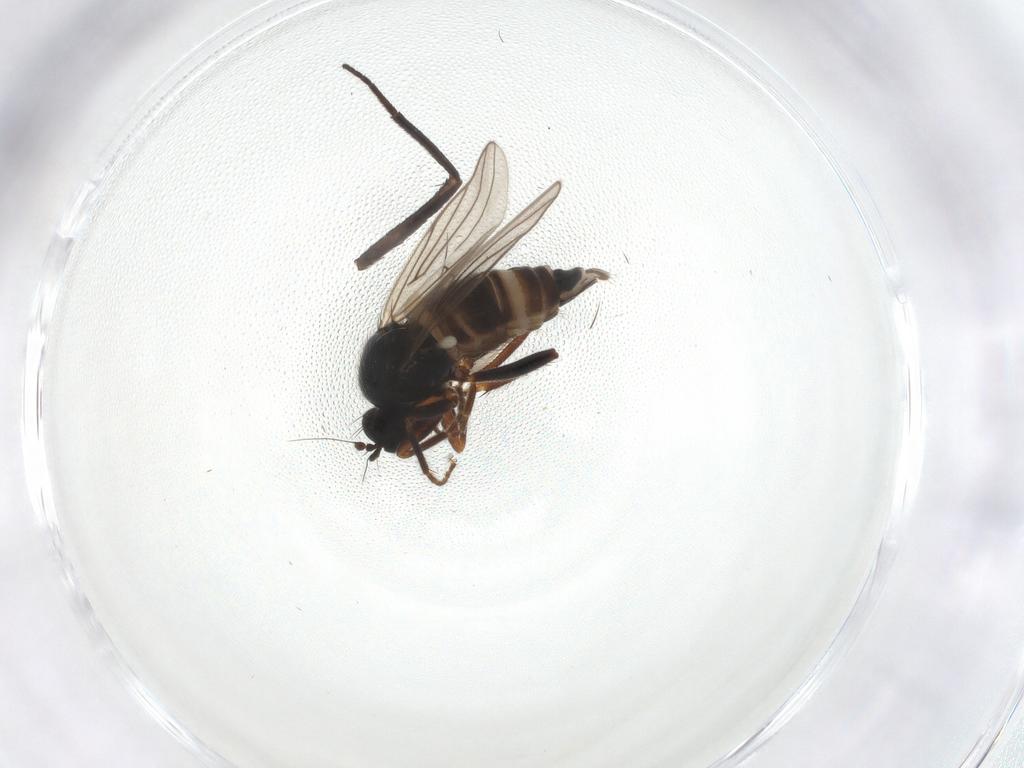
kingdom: Animalia
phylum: Arthropoda
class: Insecta
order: Diptera
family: Bombyliidae
